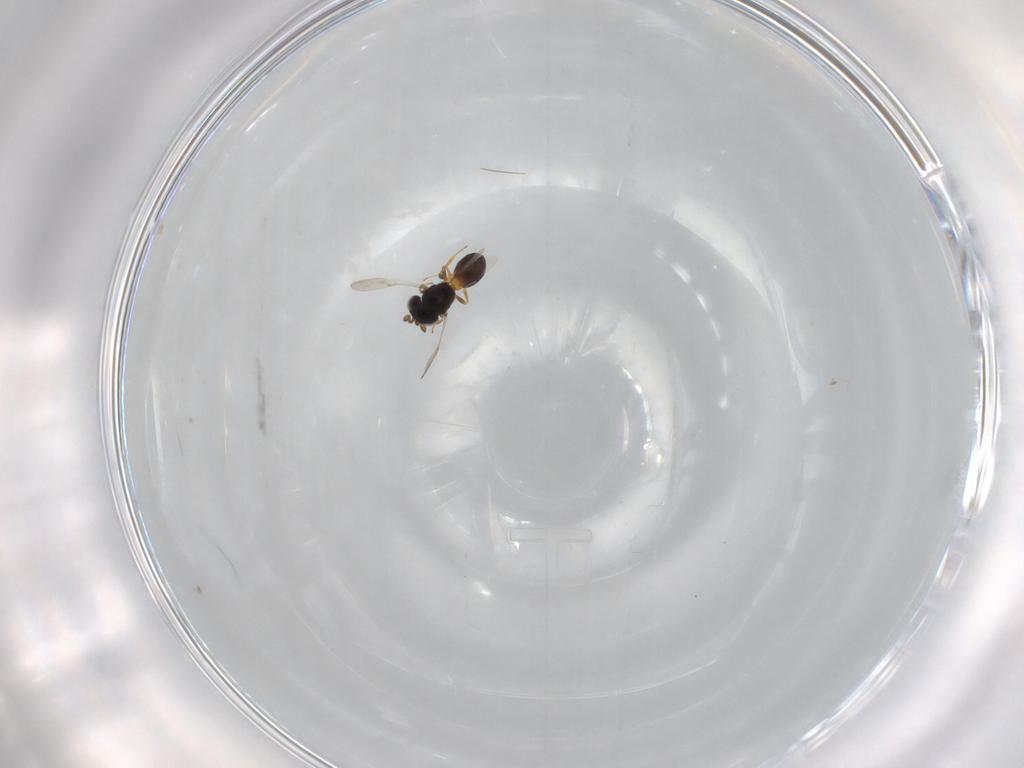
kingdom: Animalia
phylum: Arthropoda
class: Insecta
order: Hymenoptera
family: Scelionidae
